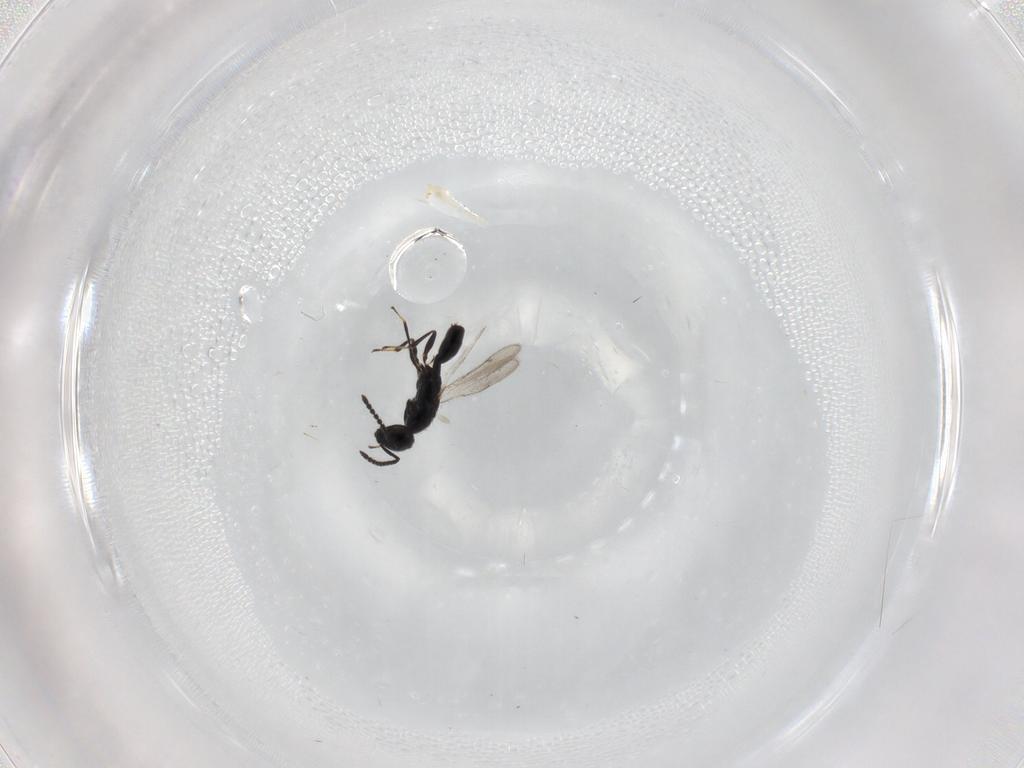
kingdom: Animalia
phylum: Arthropoda
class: Insecta
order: Hymenoptera
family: Spalangiidae
